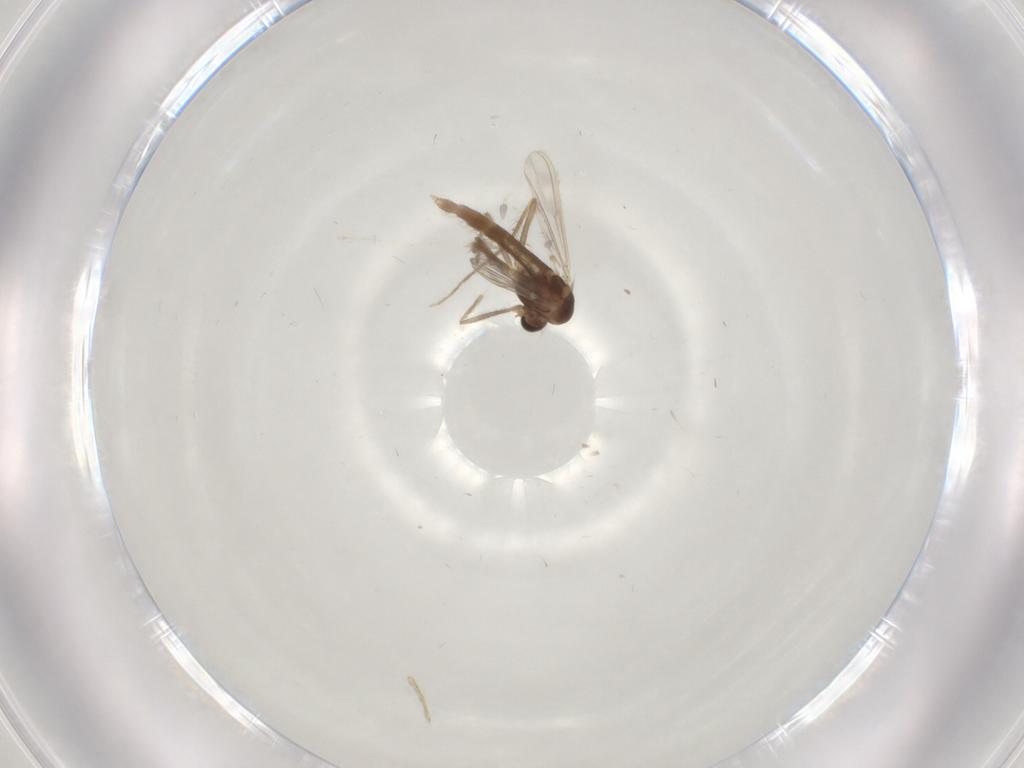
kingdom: Animalia
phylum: Arthropoda
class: Insecta
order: Diptera
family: Chironomidae
